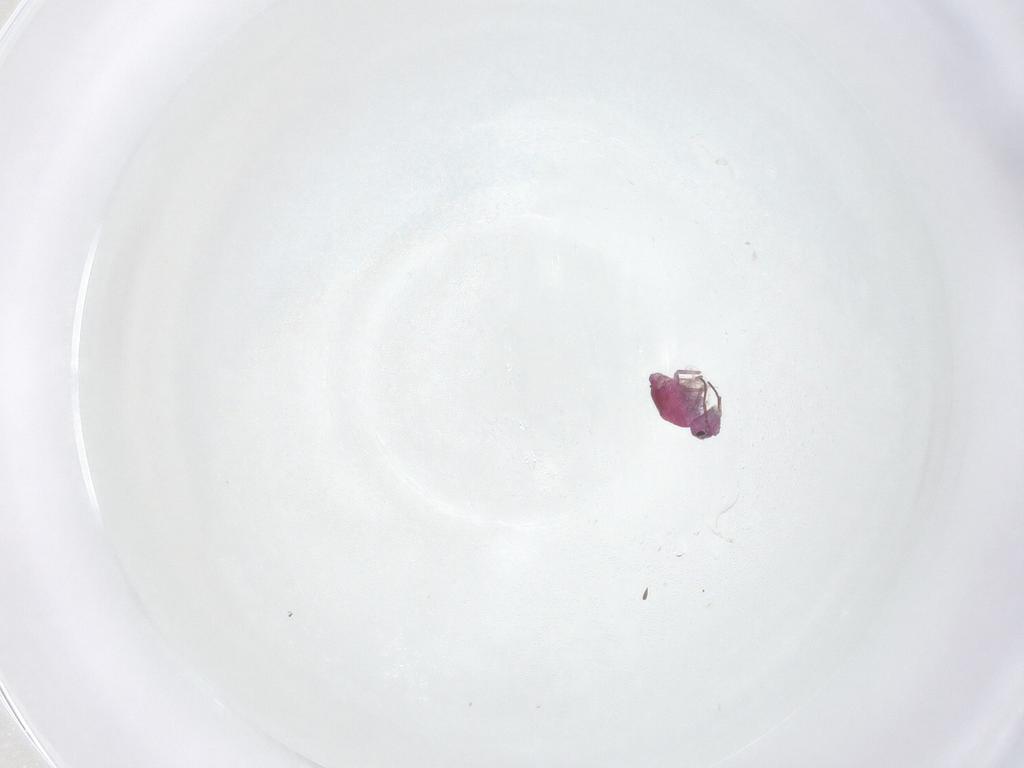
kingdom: Animalia
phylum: Arthropoda
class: Collembola
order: Symphypleona
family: Sminthuridae
